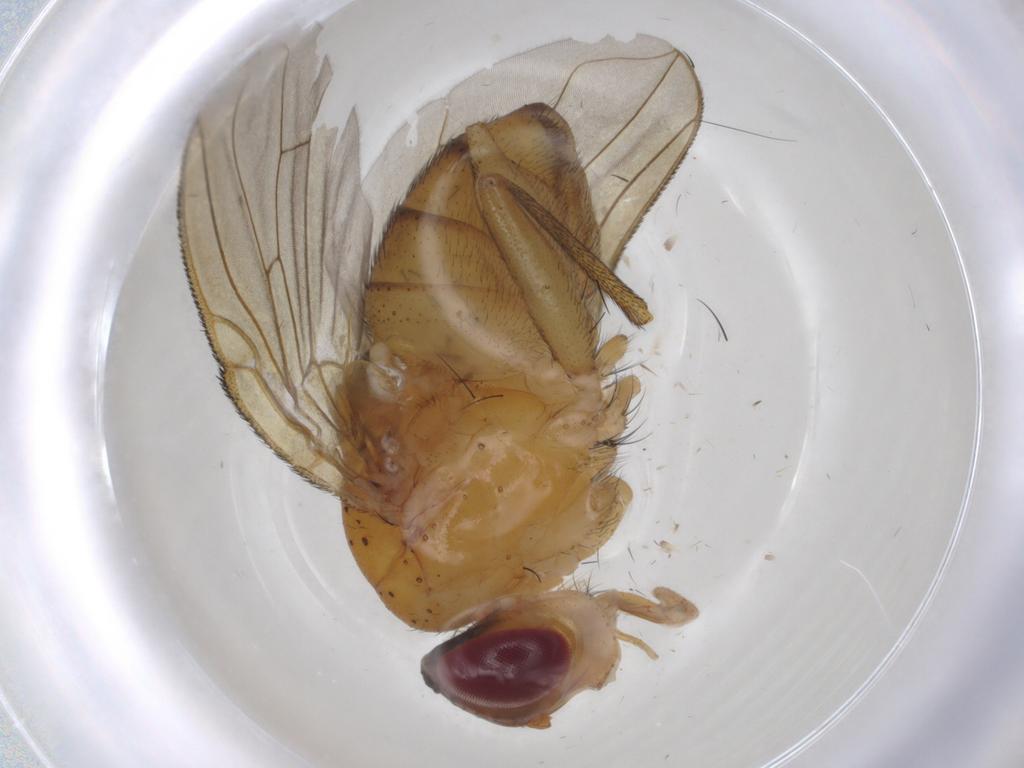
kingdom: Animalia
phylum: Arthropoda
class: Insecta
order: Diptera
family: Calliphoridae
